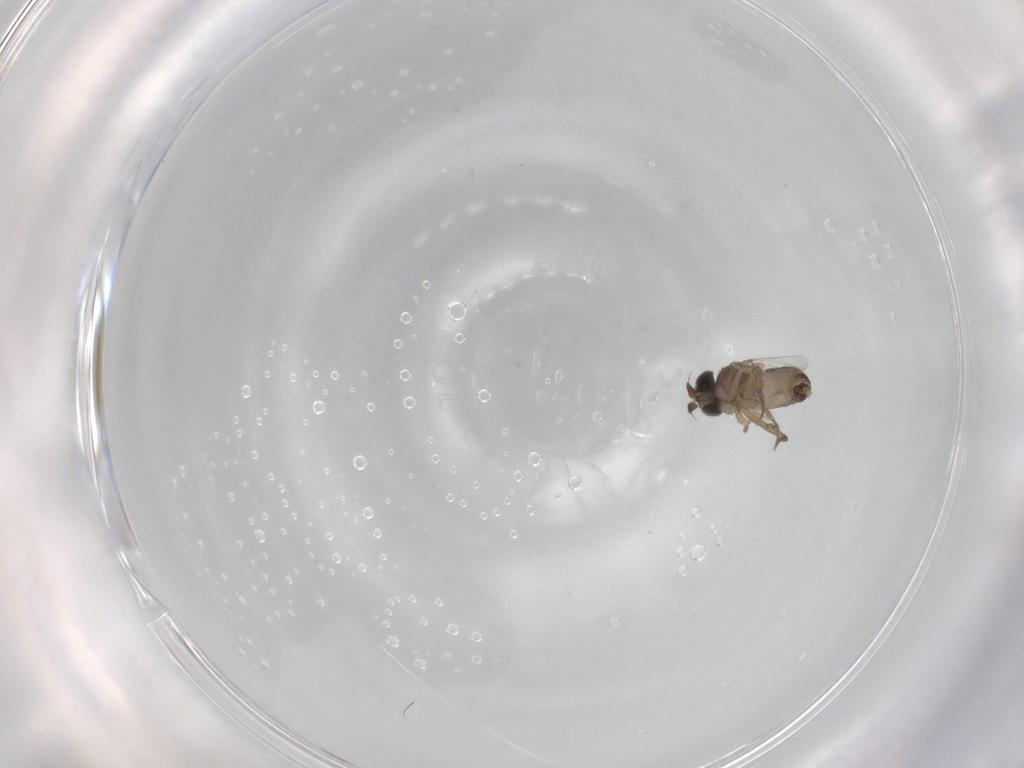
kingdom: Animalia
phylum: Arthropoda
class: Insecta
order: Diptera
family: Phoridae
